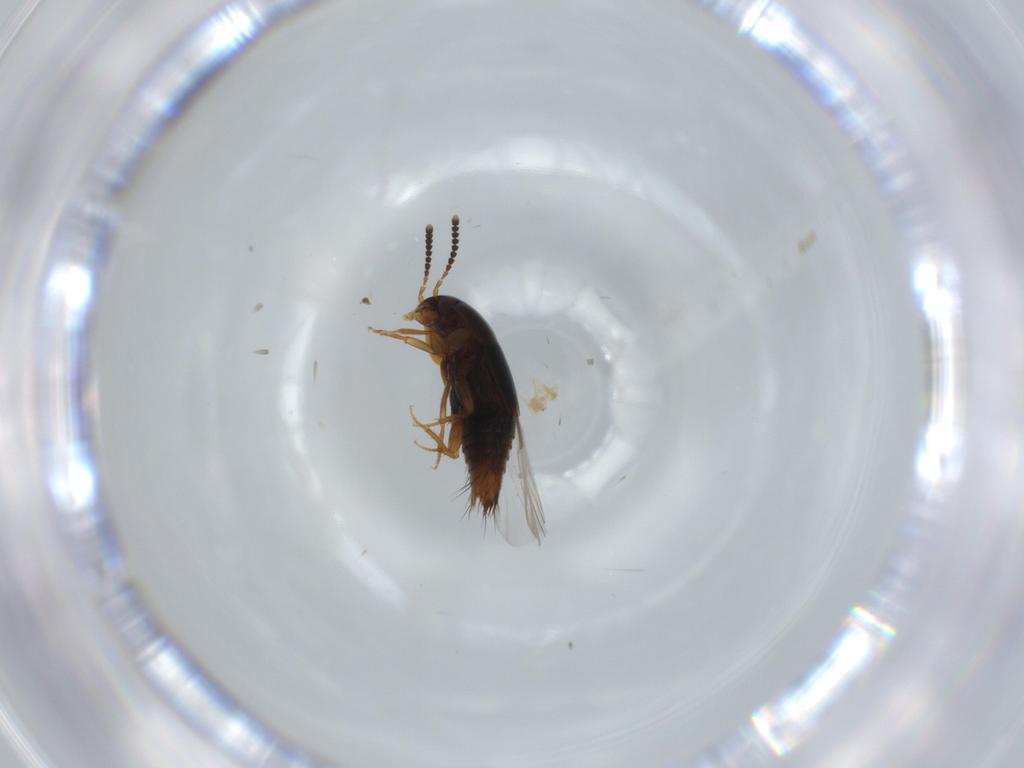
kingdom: Animalia
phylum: Arthropoda
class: Insecta
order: Coleoptera
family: Staphylinidae
